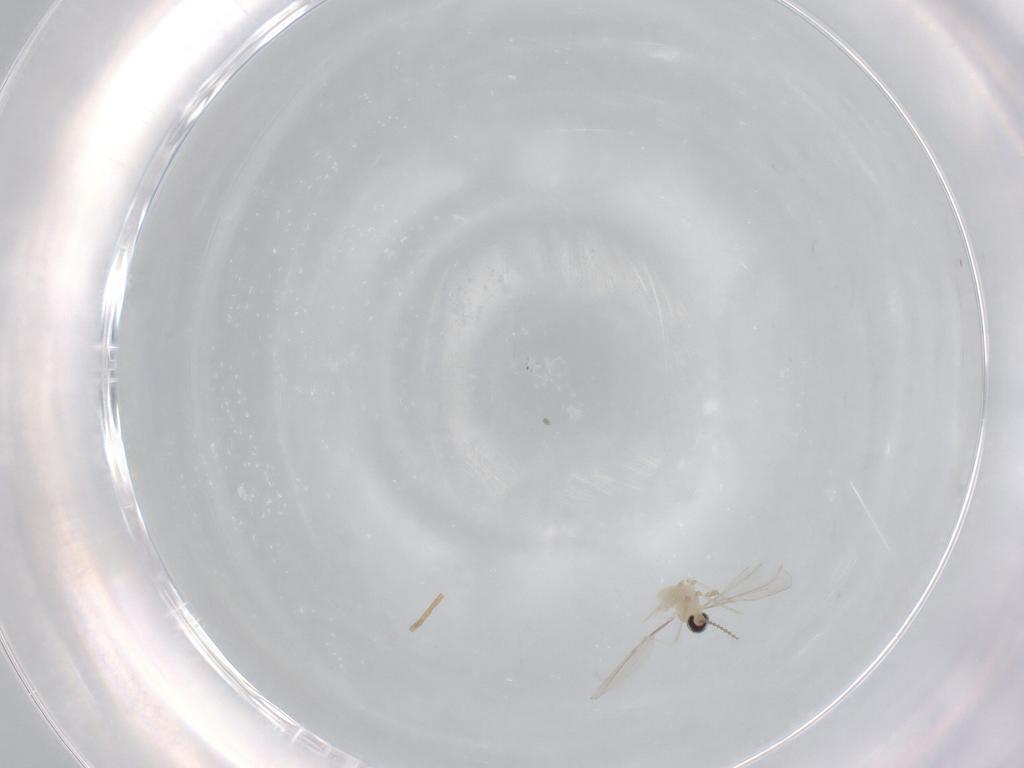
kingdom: Animalia
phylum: Arthropoda
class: Insecta
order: Diptera
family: Cecidomyiidae
